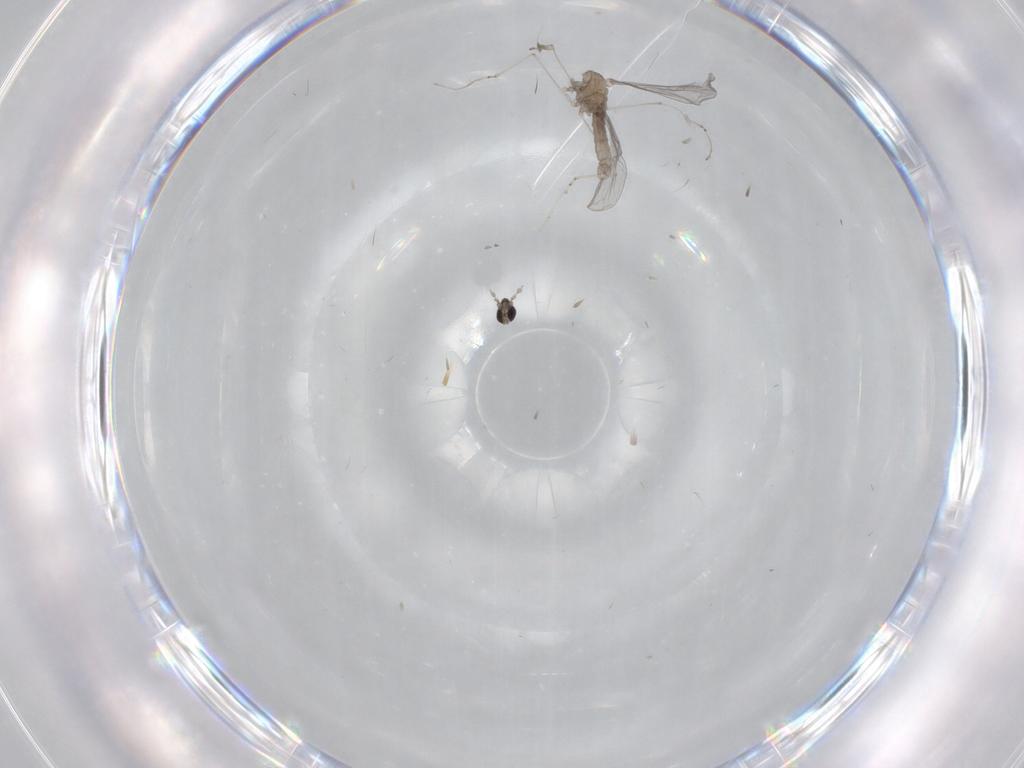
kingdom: Animalia
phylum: Arthropoda
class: Insecta
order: Diptera
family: Cecidomyiidae
